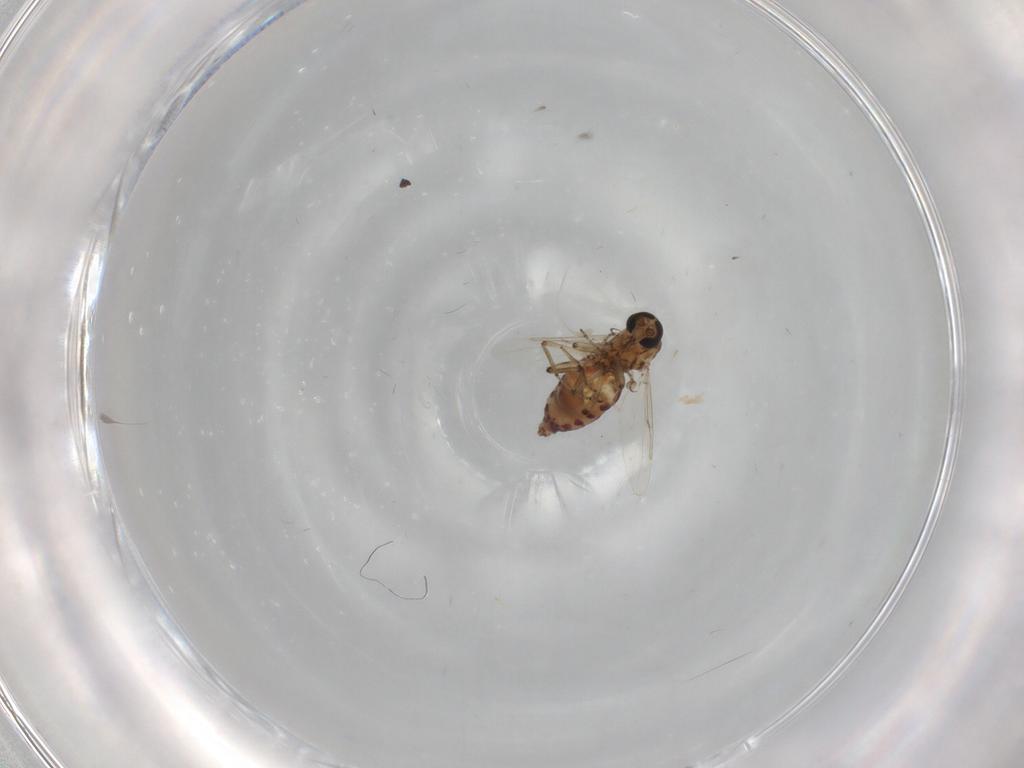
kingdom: Animalia
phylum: Arthropoda
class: Insecta
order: Diptera
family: Ceratopogonidae
